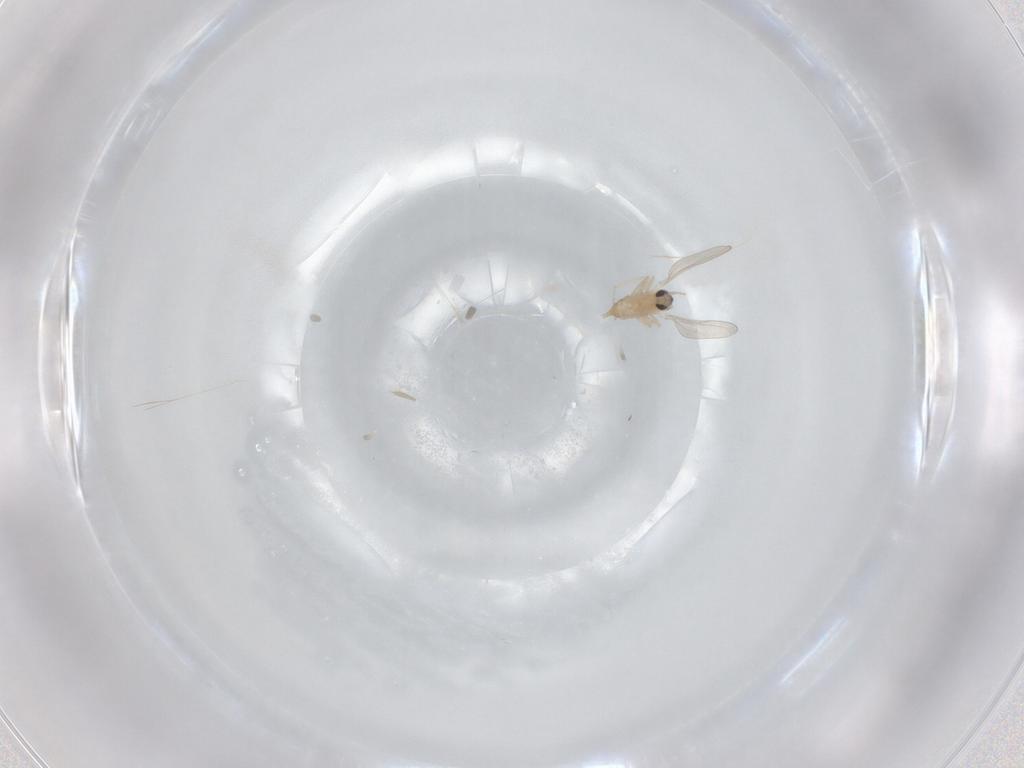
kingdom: Animalia
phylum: Arthropoda
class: Insecta
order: Diptera
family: Cecidomyiidae
